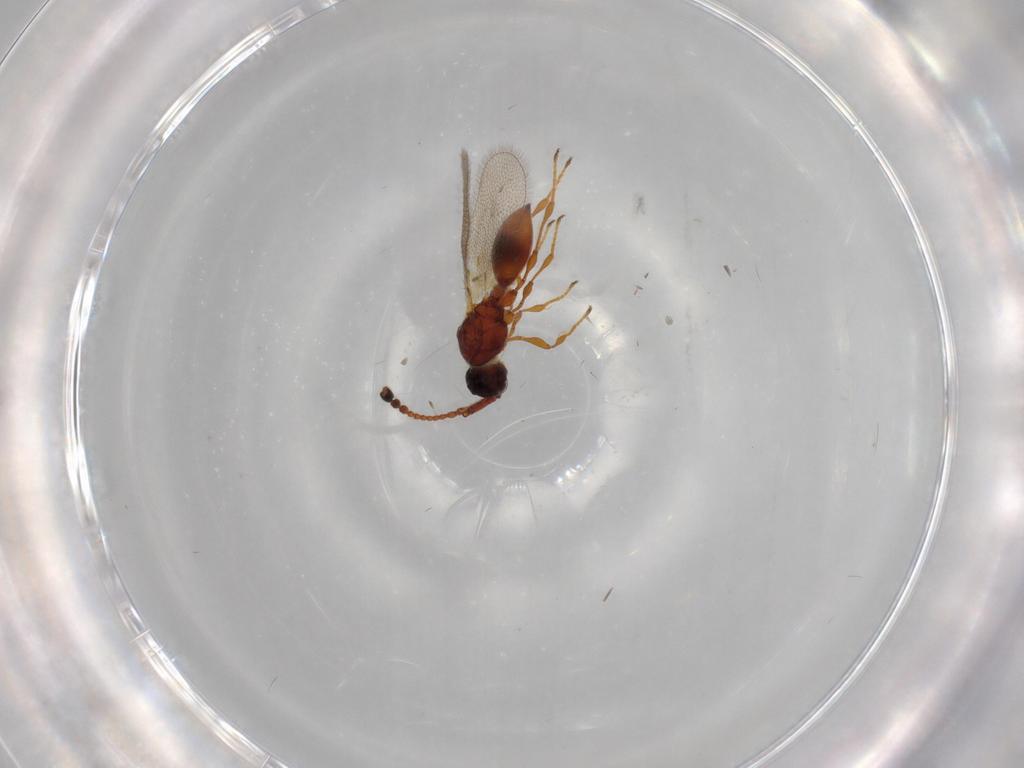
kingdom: Animalia
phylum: Arthropoda
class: Insecta
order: Hymenoptera
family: Diapriidae
